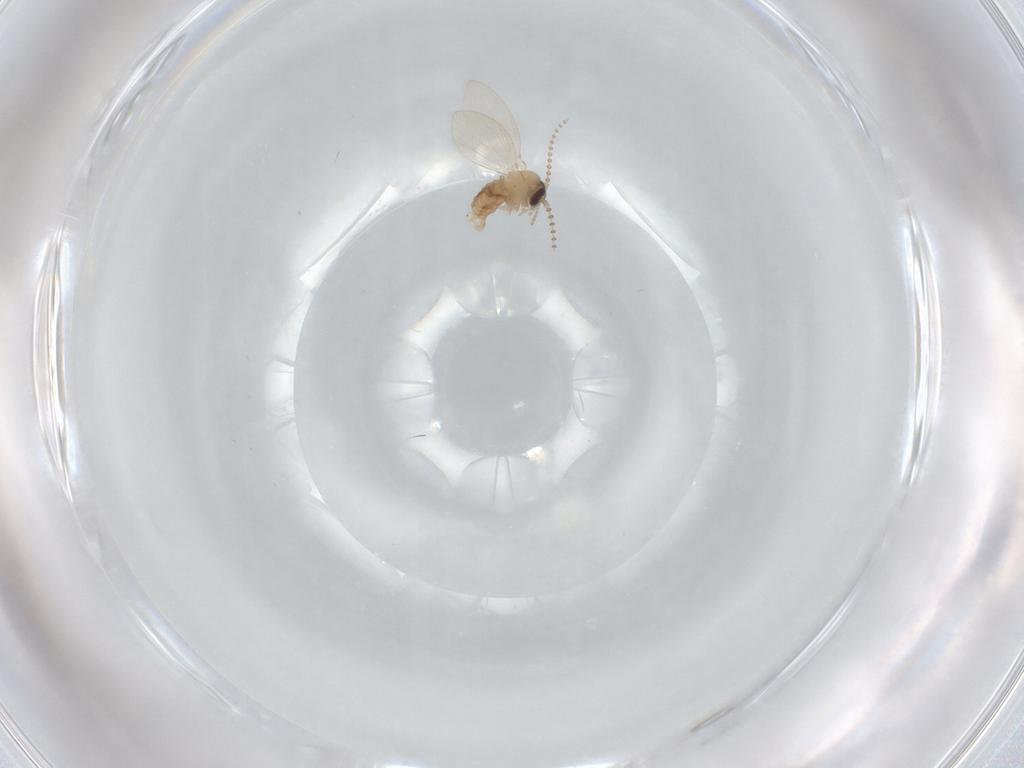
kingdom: Animalia
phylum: Arthropoda
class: Insecta
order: Diptera
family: Psychodidae
